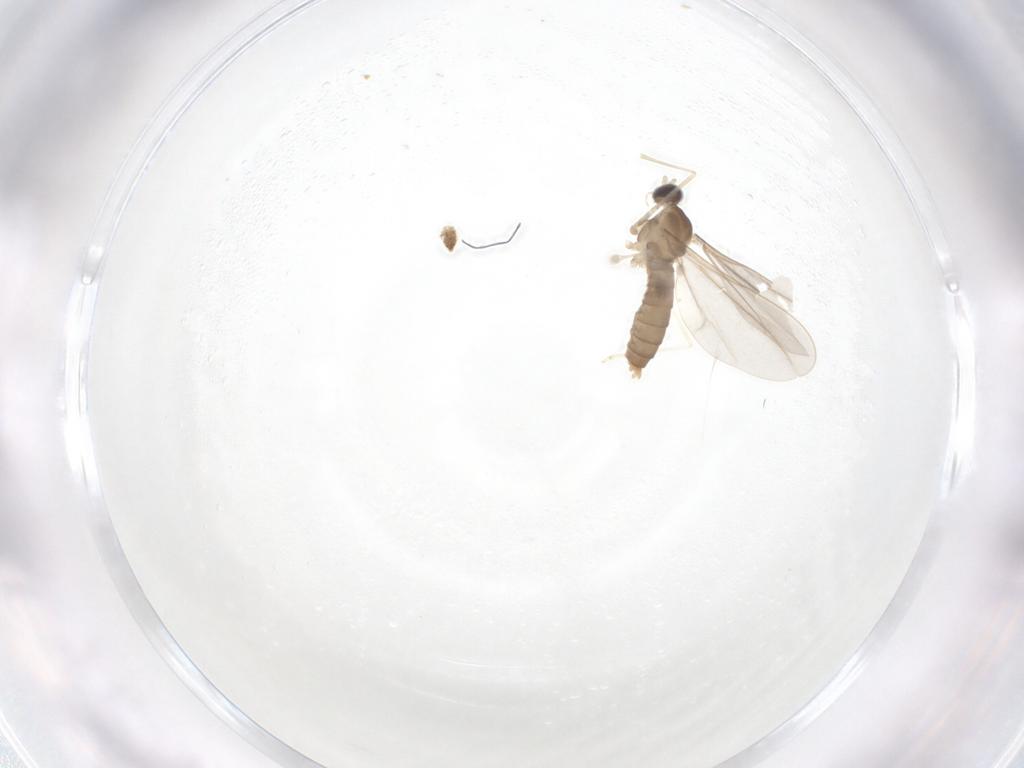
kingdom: Animalia
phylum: Arthropoda
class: Insecta
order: Diptera
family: Cecidomyiidae
